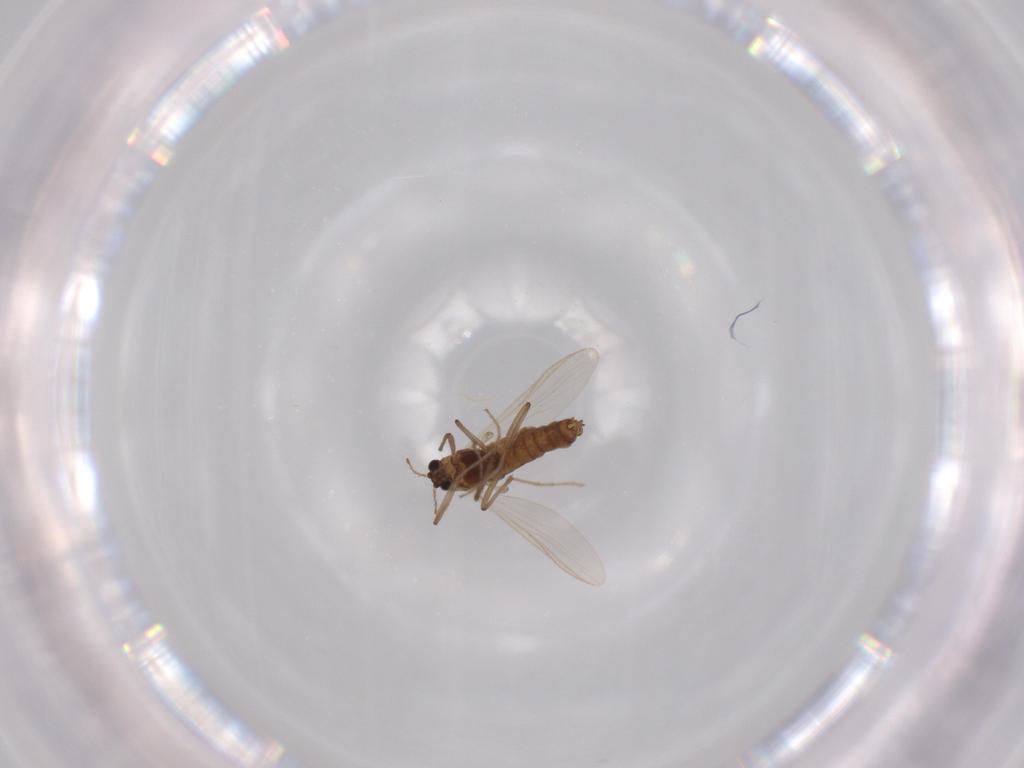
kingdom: Animalia
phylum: Arthropoda
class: Insecta
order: Diptera
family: Chironomidae
